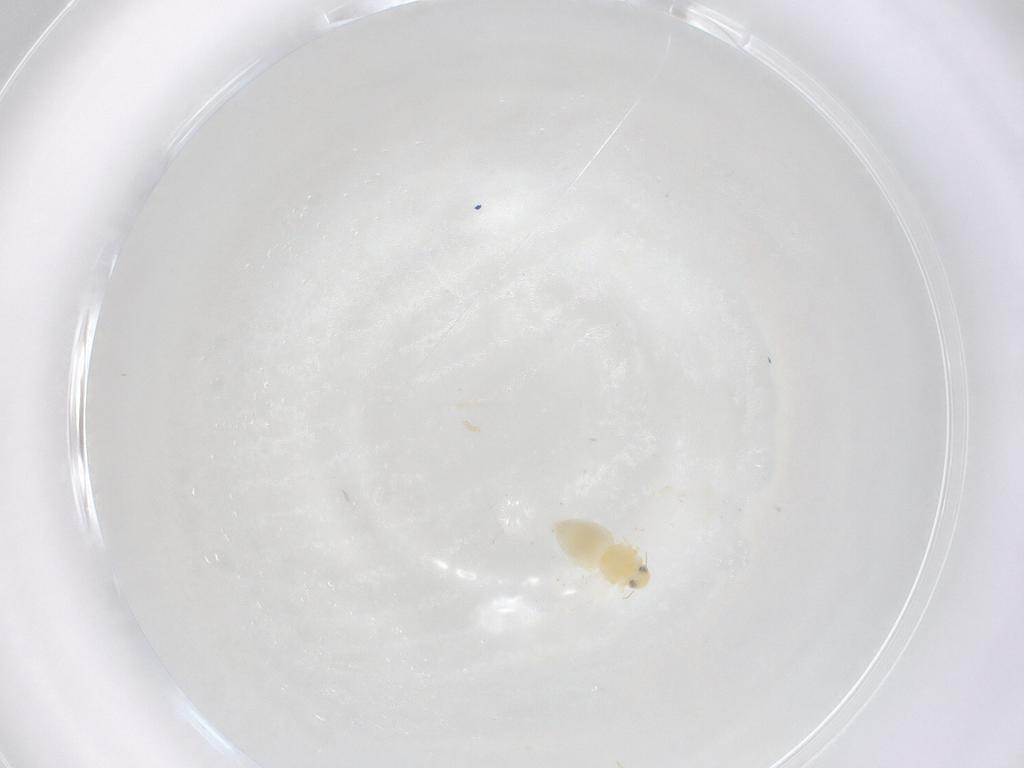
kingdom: Animalia
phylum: Arthropoda
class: Insecta
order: Hemiptera
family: Aleyrodidae
